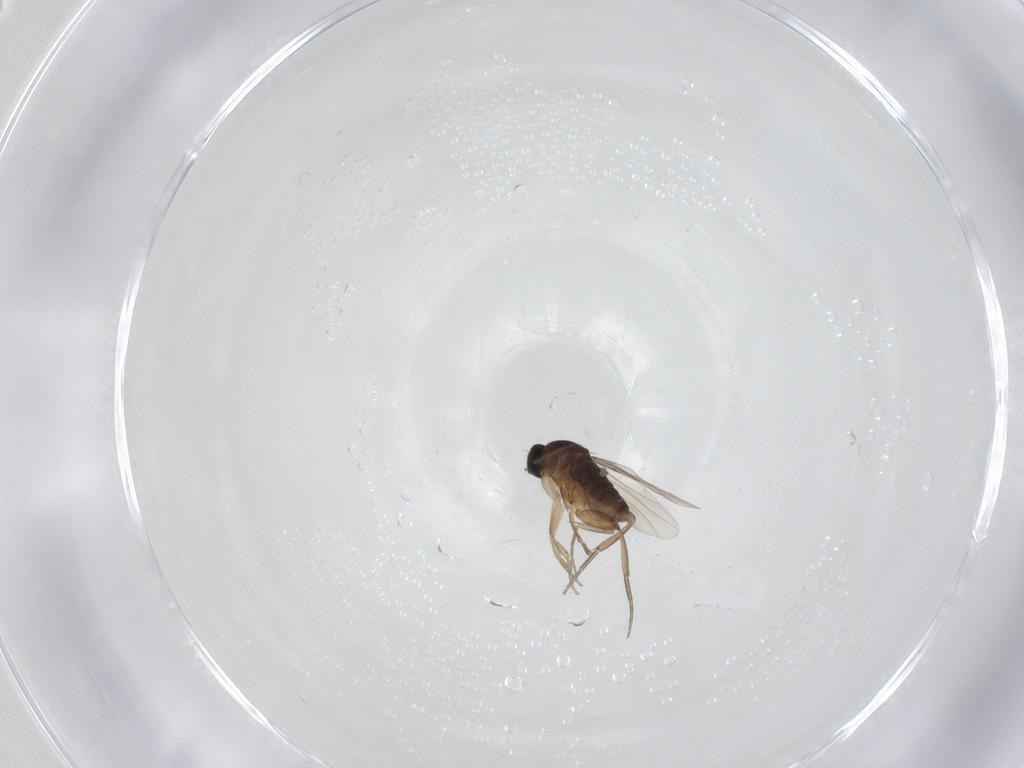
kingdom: Animalia
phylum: Arthropoda
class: Insecta
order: Diptera
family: Phoridae
